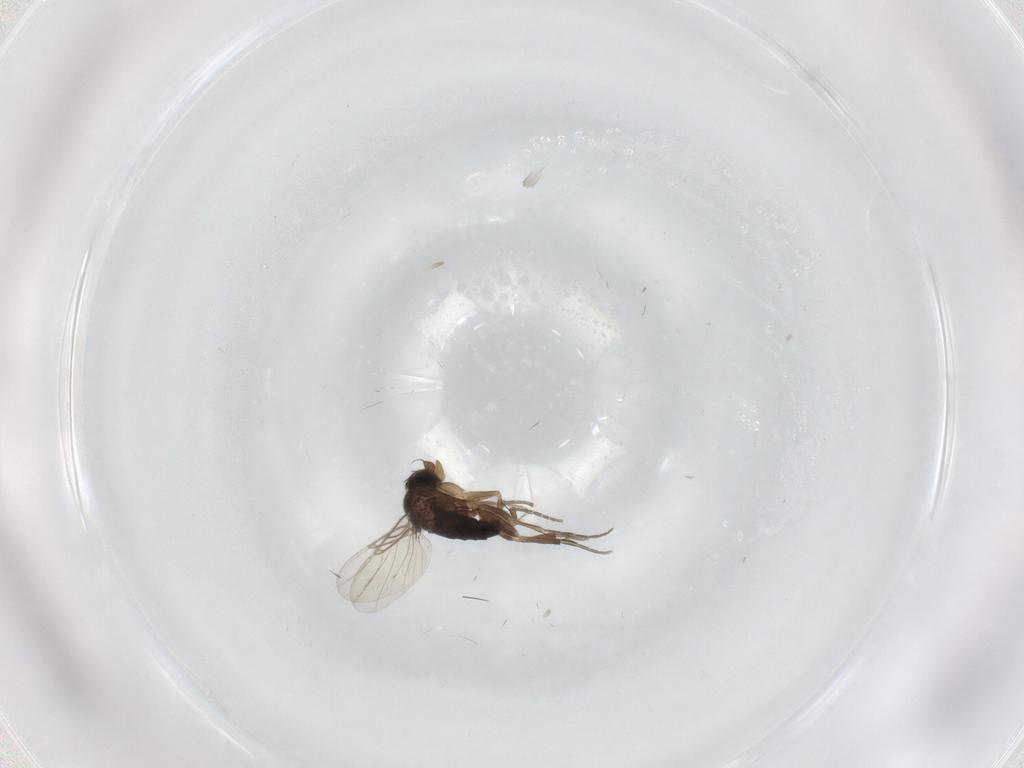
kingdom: Animalia
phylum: Arthropoda
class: Insecta
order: Diptera
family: Phoridae
